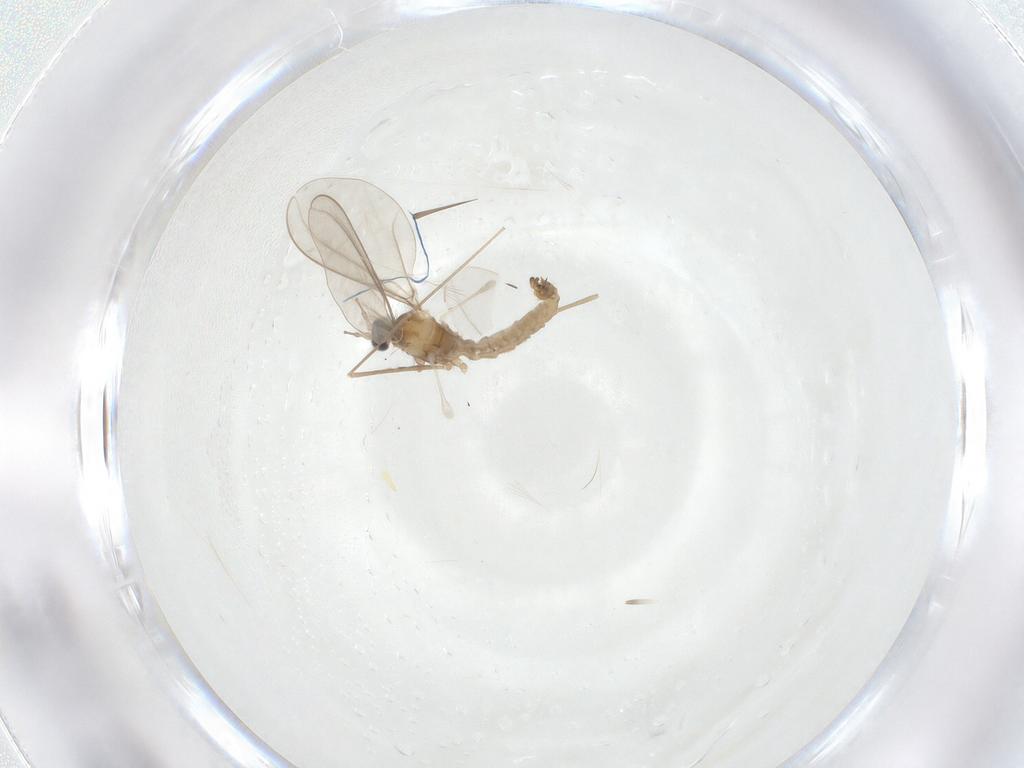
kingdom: Animalia
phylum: Arthropoda
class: Insecta
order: Diptera
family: Cecidomyiidae
